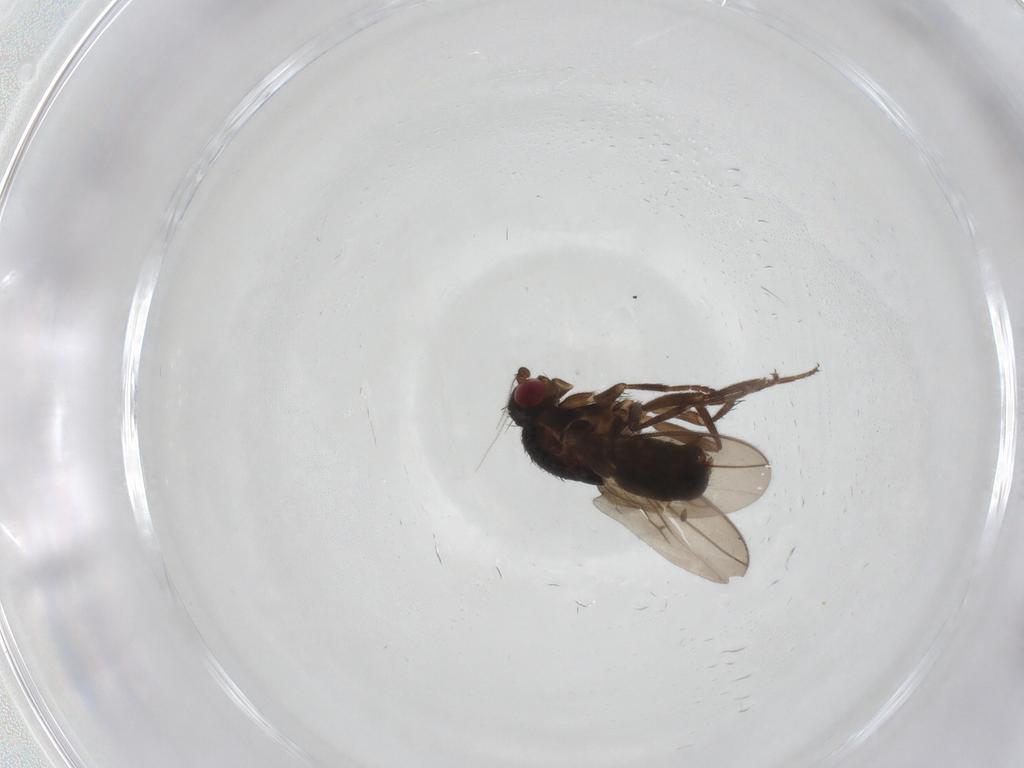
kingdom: Animalia
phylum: Arthropoda
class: Insecta
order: Diptera
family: Sphaeroceridae
